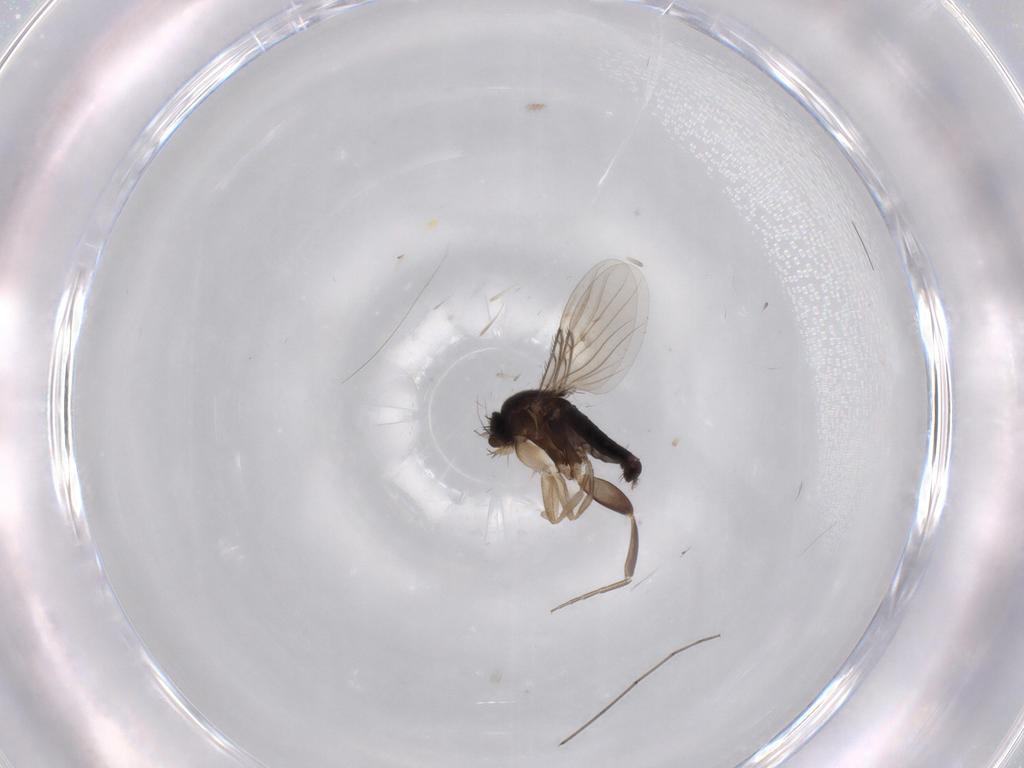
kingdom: Animalia
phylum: Arthropoda
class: Insecta
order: Diptera
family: Phoridae
